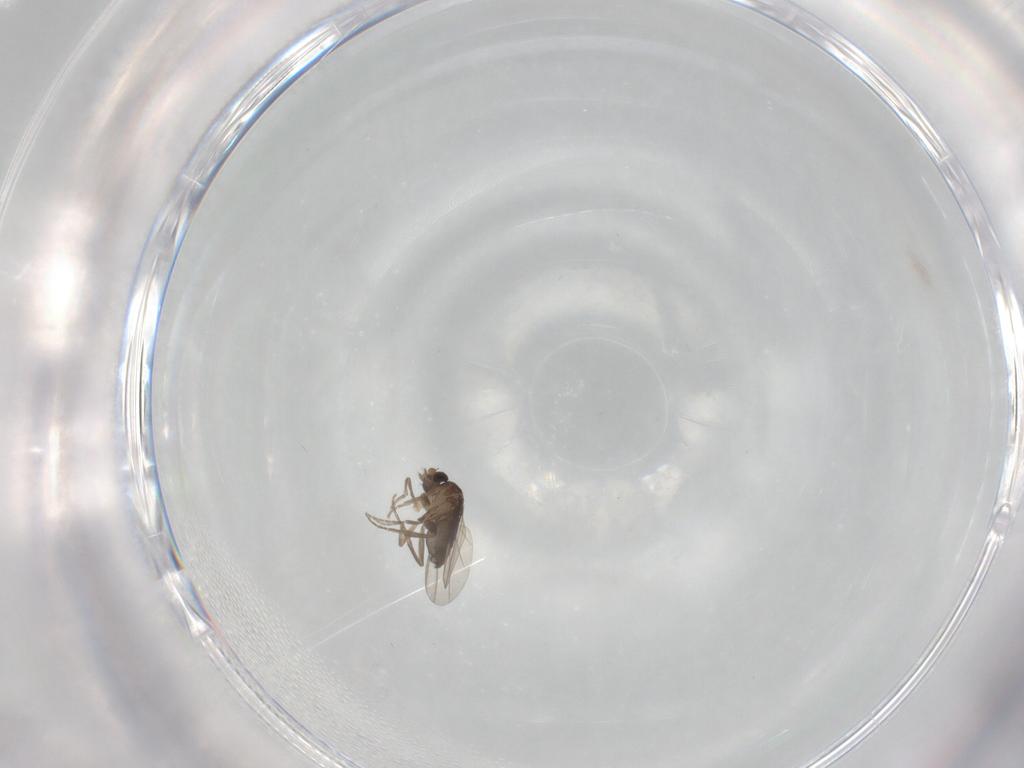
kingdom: Animalia
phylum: Arthropoda
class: Insecta
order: Diptera
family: Phoridae
